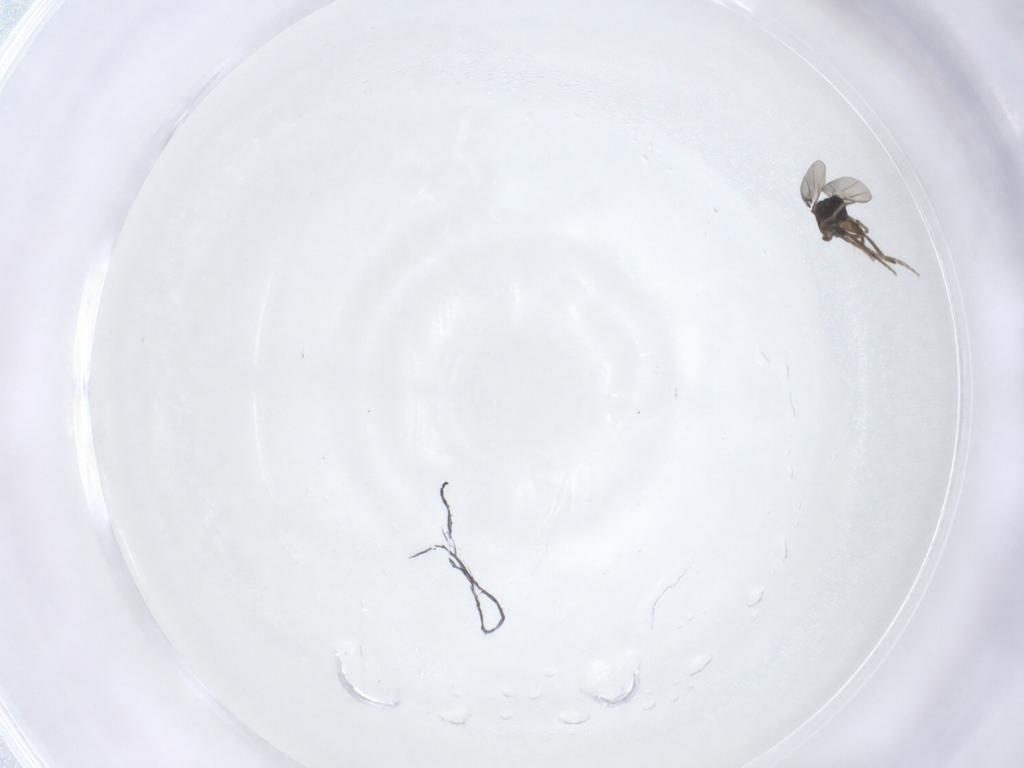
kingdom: Animalia
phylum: Arthropoda
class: Insecta
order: Diptera
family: Phoridae
